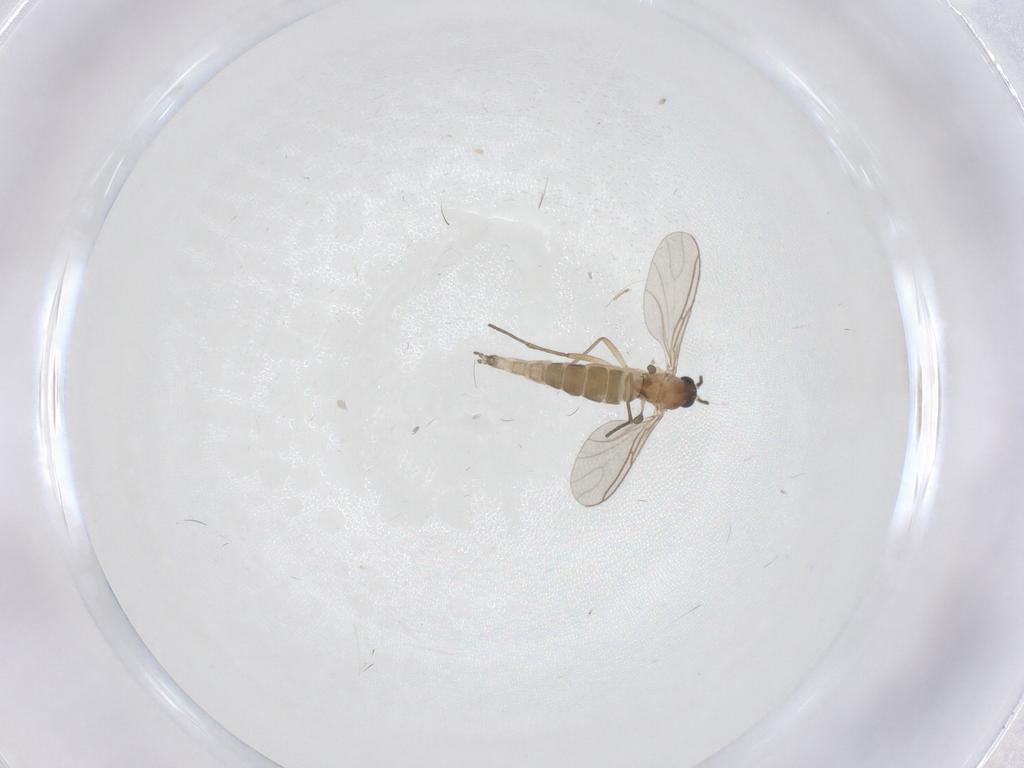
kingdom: Animalia
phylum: Arthropoda
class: Insecta
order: Diptera
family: Sciaridae
